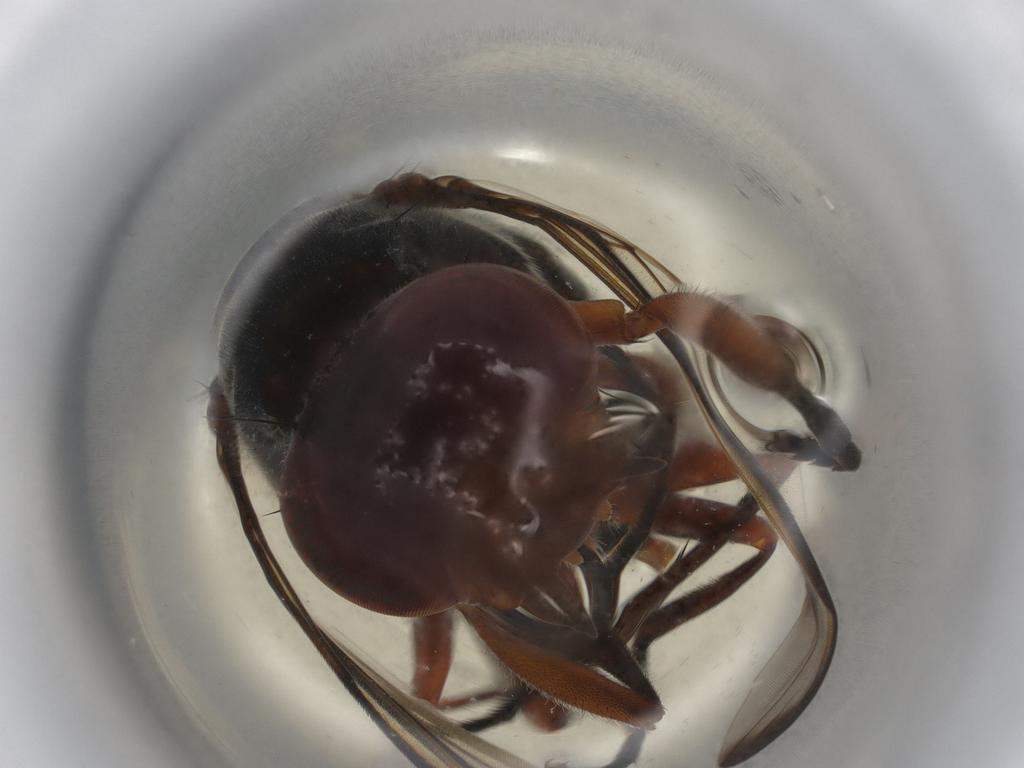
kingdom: Animalia
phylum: Arthropoda
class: Insecta
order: Diptera
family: Platystomatidae
